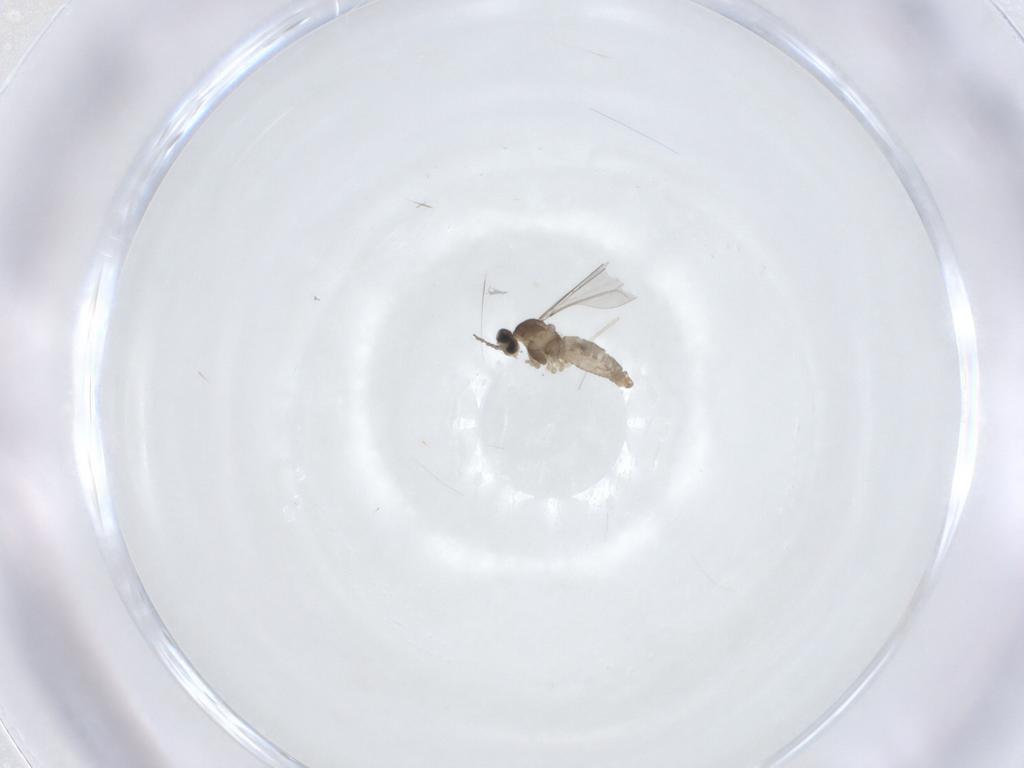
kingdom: Animalia
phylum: Arthropoda
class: Insecta
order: Diptera
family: Cecidomyiidae
